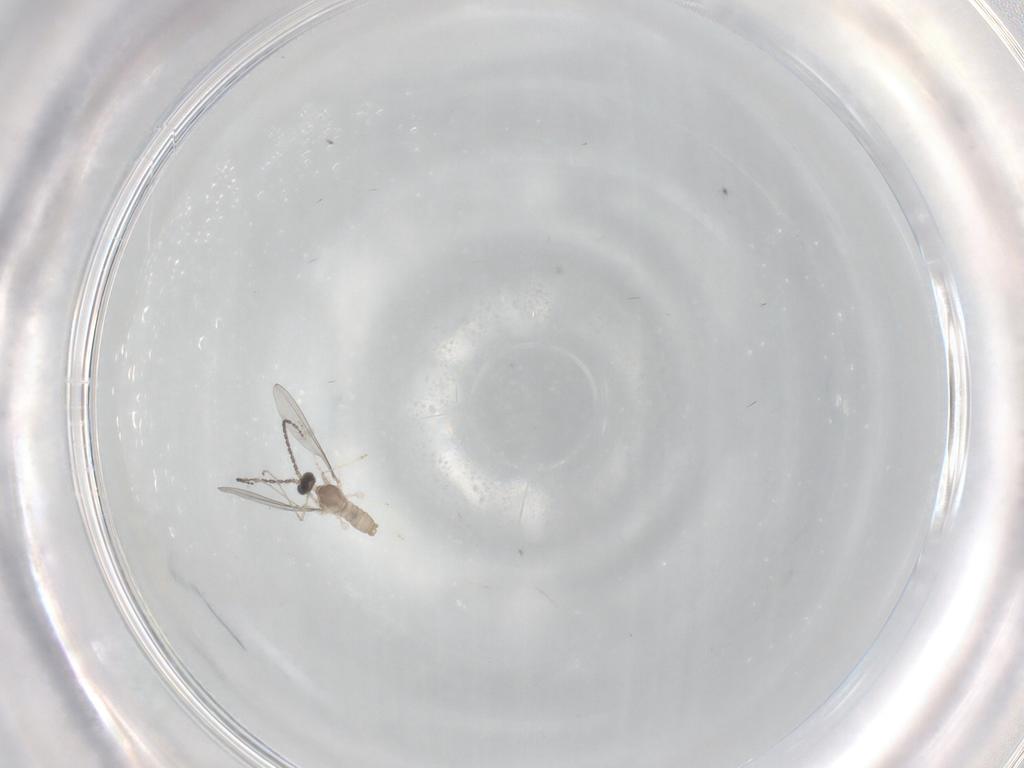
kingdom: Animalia
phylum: Arthropoda
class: Insecta
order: Diptera
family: Cecidomyiidae
